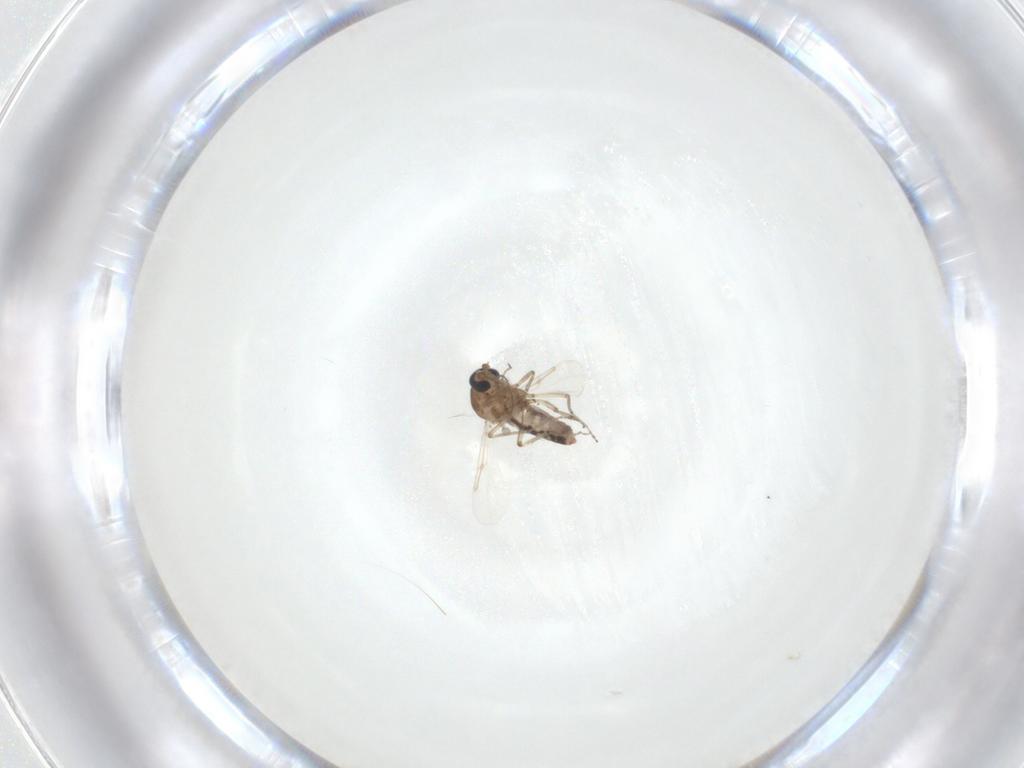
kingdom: Animalia
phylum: Arthropoda
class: Insecta
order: Diptera
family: Ceratopogonidae
